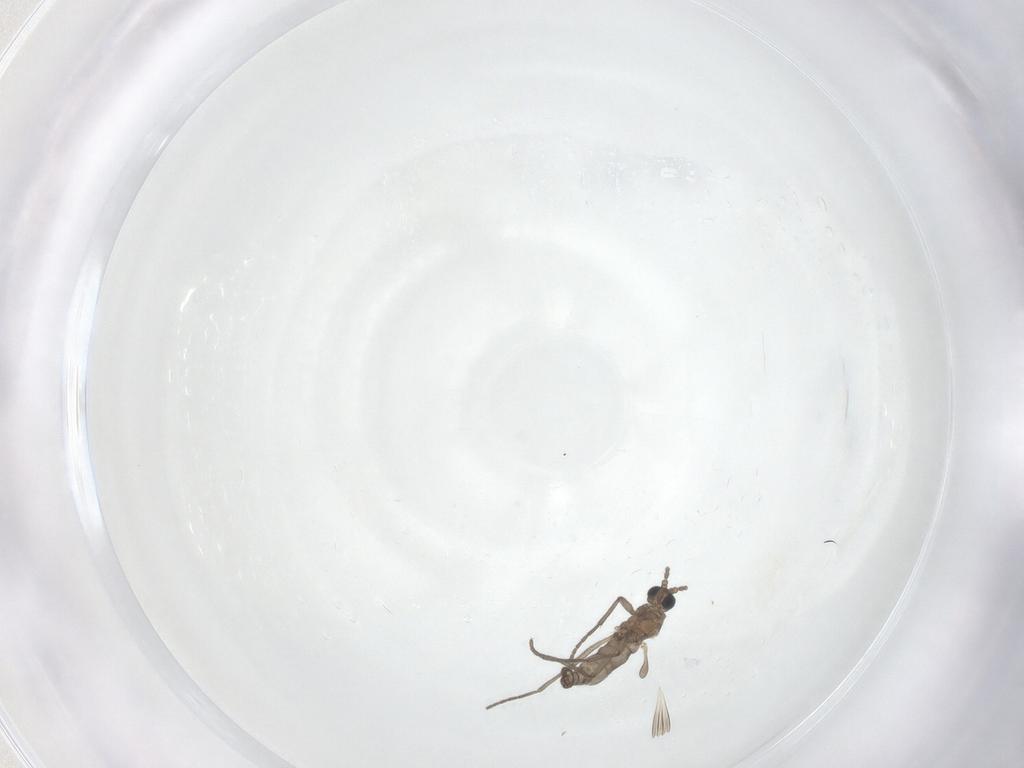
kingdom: Animalia
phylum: Arthropoda
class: Insecta
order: Diptera
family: Sciaridae
